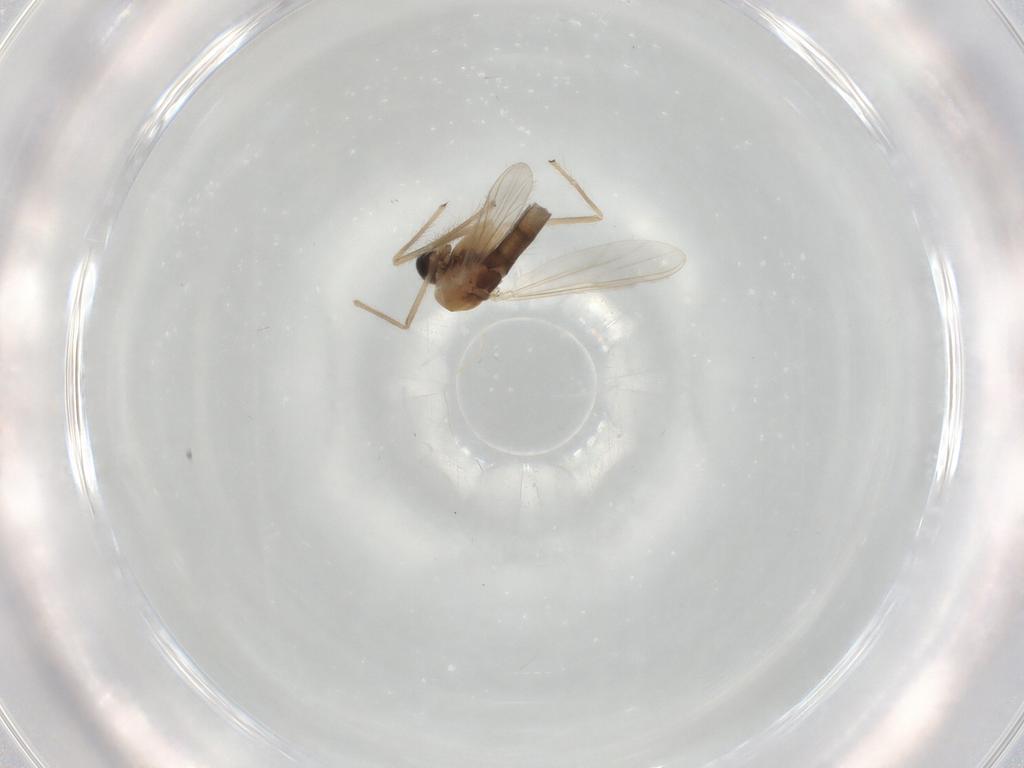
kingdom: Animalia
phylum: Arthropoda
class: Insecta
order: Diptera
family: Chironomidae
